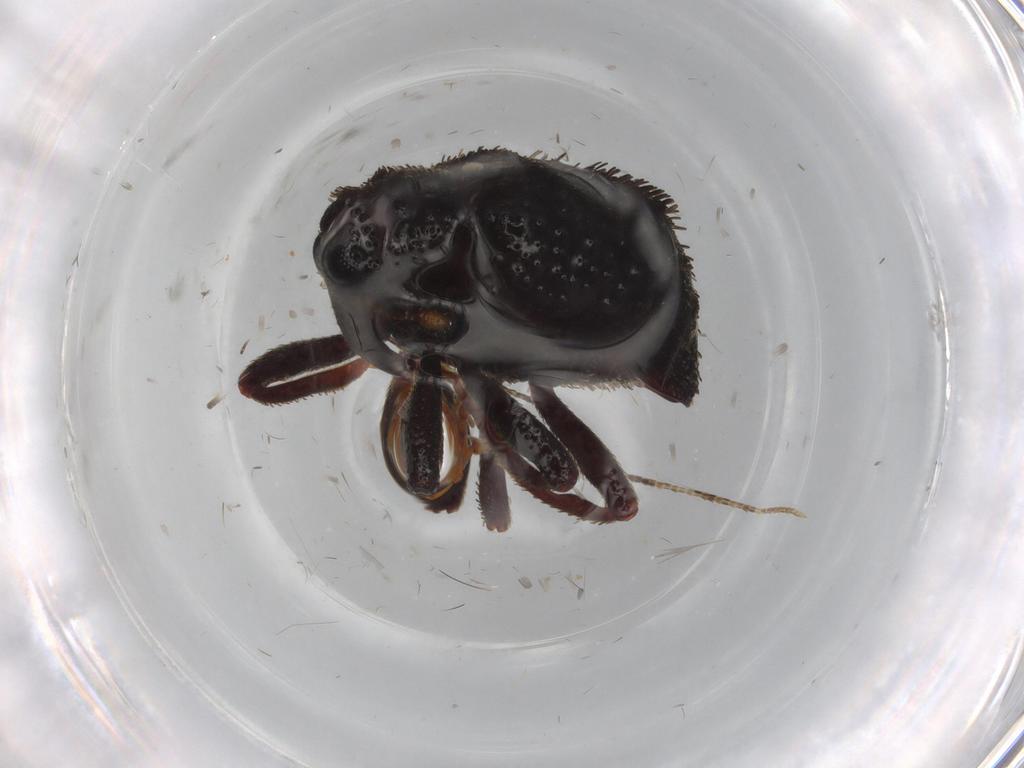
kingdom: Animalia
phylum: Arthropoda
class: Insecta
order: Coleoptera
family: Curculionidae
